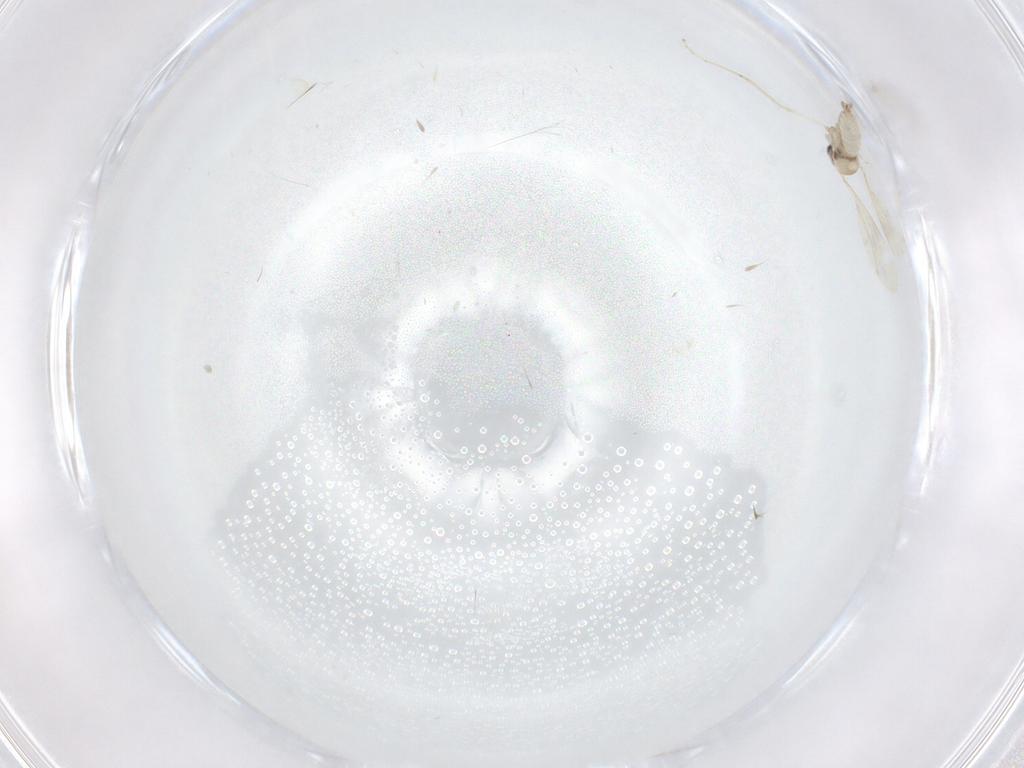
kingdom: Animalia
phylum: Arthropoda
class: Insecta
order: Diptera
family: Cecidomyiidae
